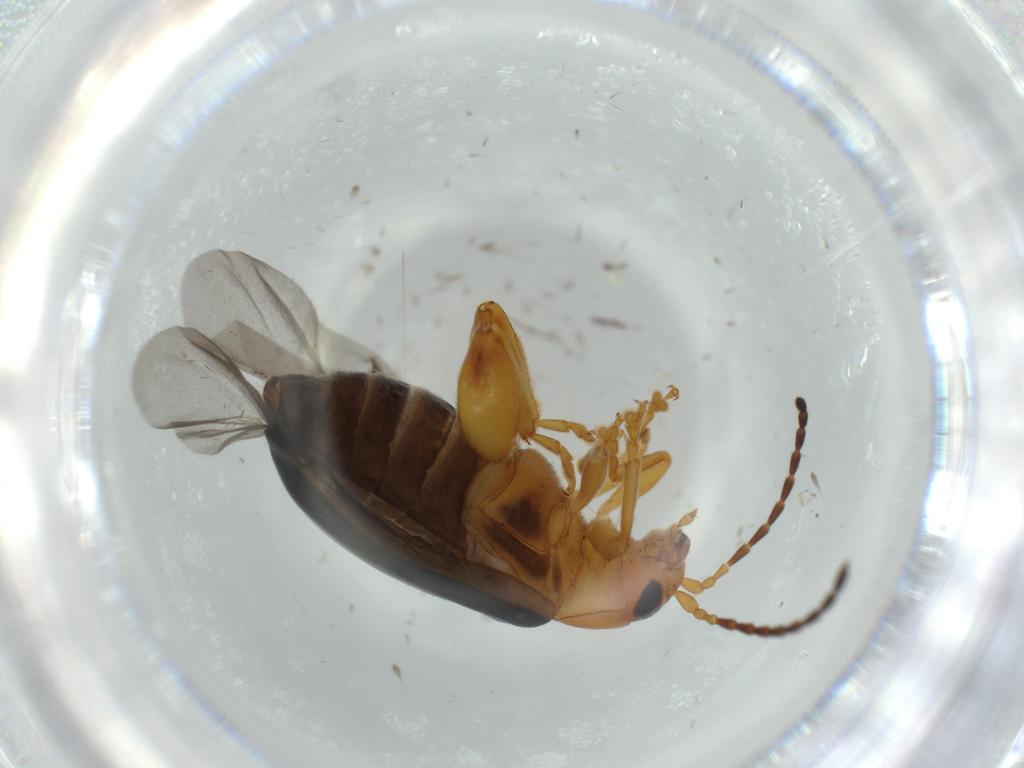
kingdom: Animalia
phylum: Arthropoda
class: Insecta
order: Coleoptera
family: Chrysomelidae
